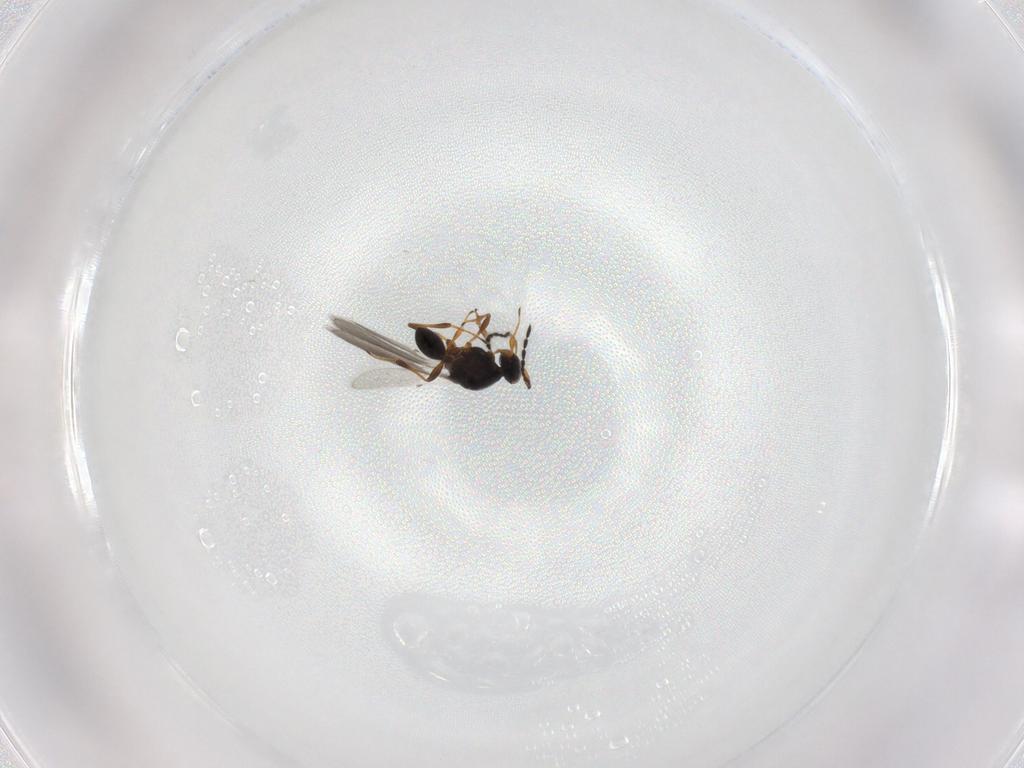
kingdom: Animalia
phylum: Arthropoda
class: Insecta
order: Hymenoptera
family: Platygastridae
